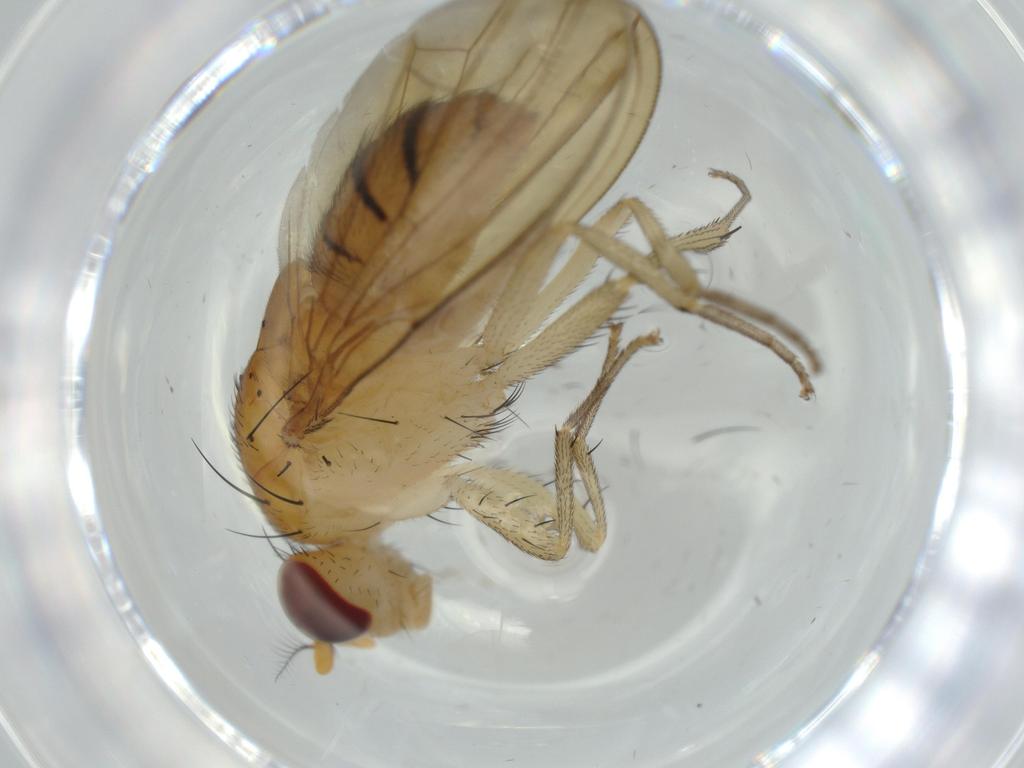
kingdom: Animalia
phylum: Arthropoda
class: Insecta
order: Diptera
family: Chironomidae
